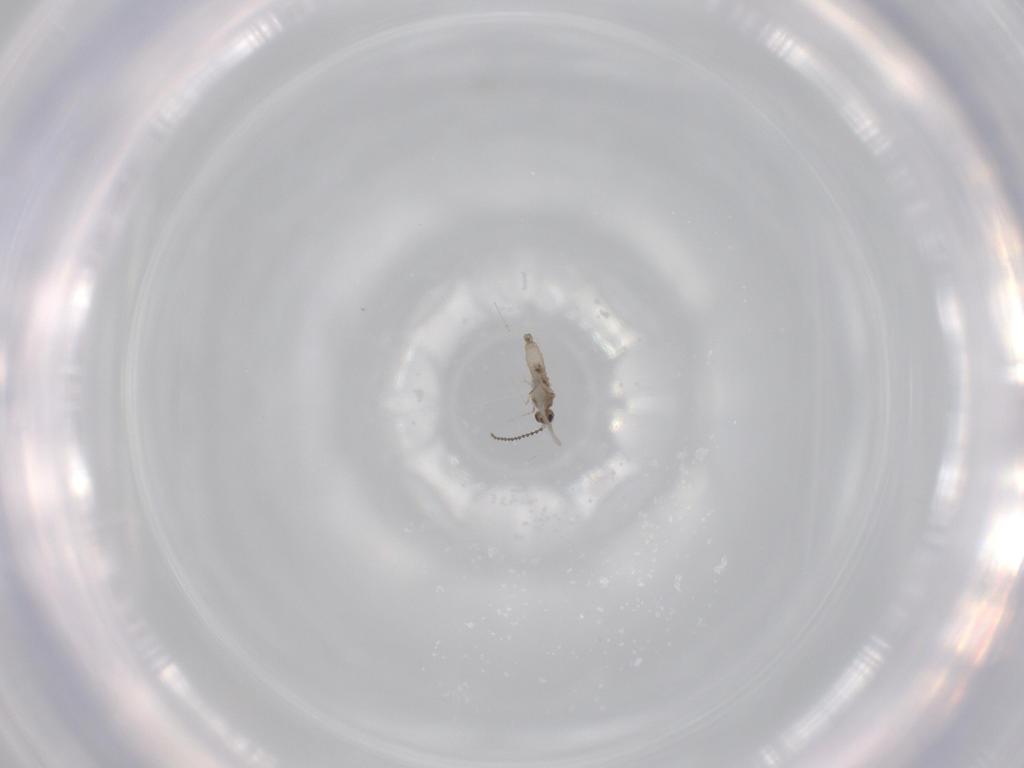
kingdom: Animalia
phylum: Arthropoda
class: Insecta
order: Diptera
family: Cecidomyiidae
